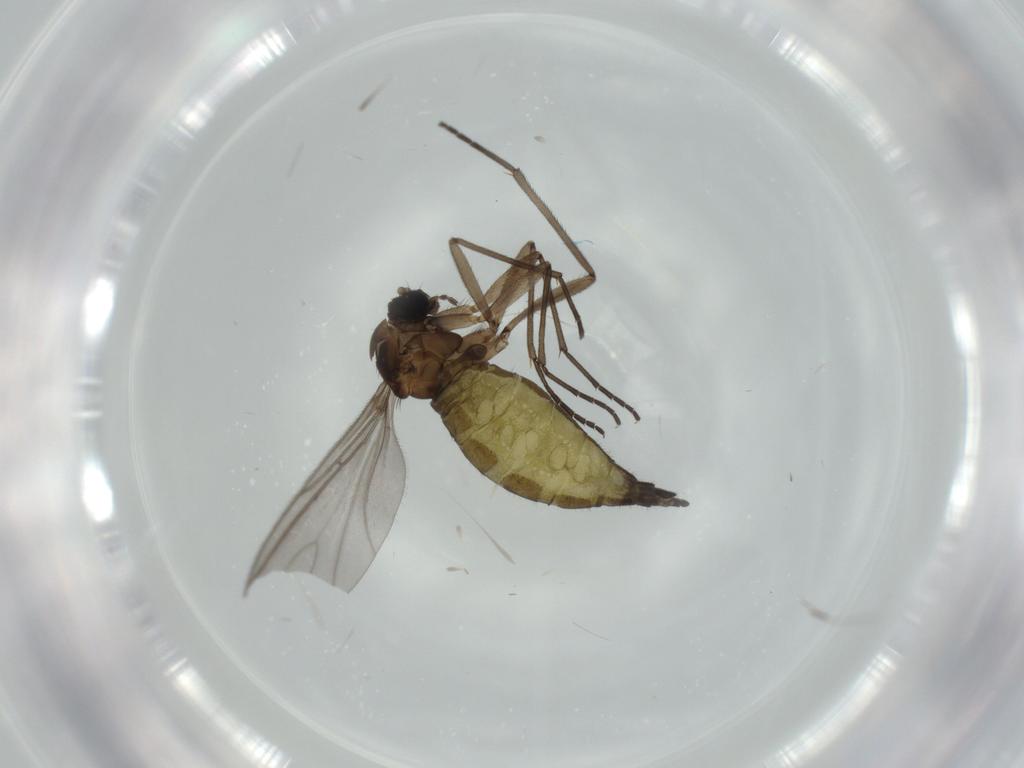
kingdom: Animalia
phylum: Arthropoda
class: Insecta
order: Diptera
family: Sciaridae
